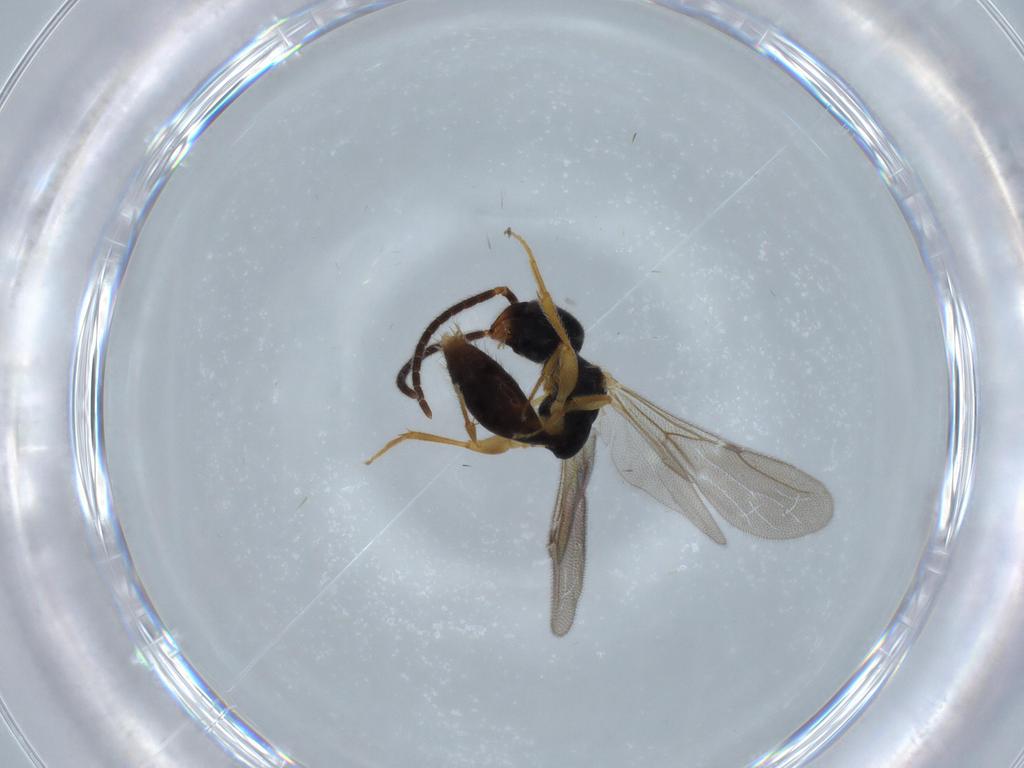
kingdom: Animalia
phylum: Arthropoda
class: Insecta
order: Hymenoptera
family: Bethylidae
